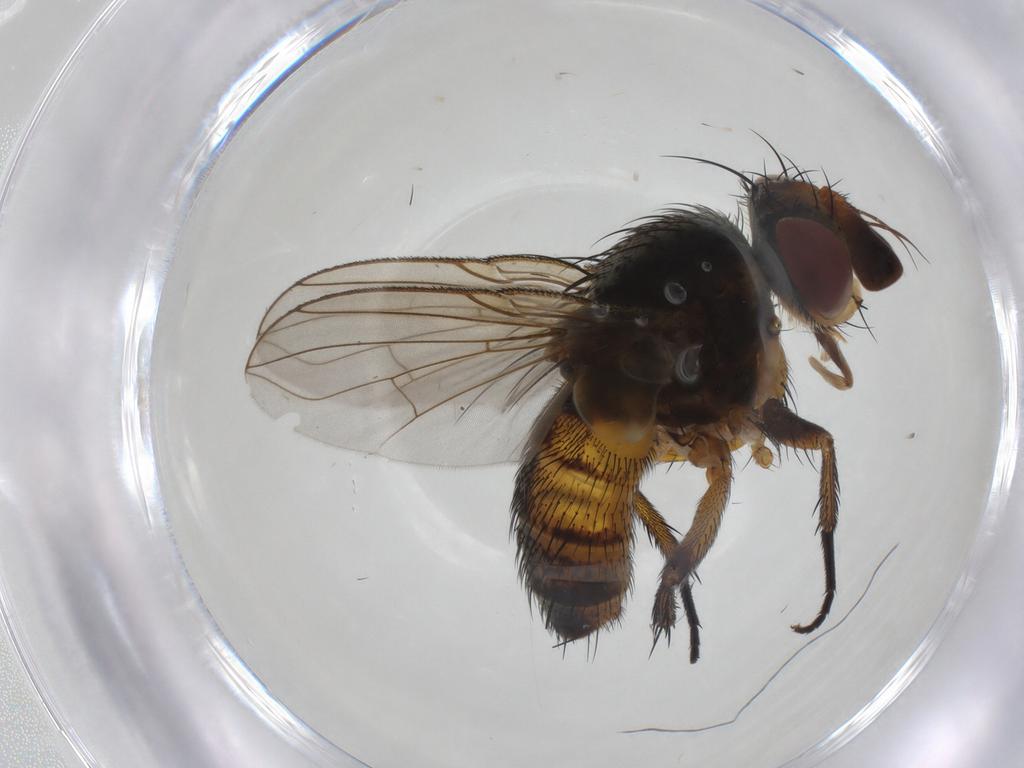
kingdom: Animalia
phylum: Arthropoda
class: Insecta
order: Diptera
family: Tachinidae
